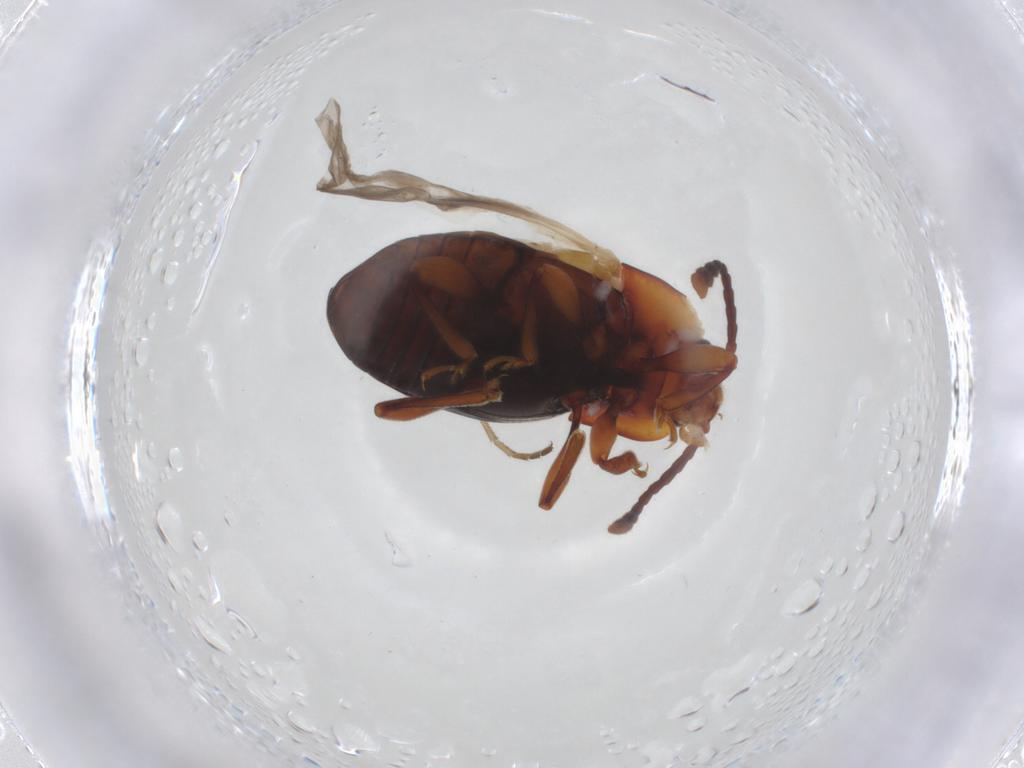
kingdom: Animalia
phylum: Arthropoda
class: Insecta
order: Coleoptera
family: Endomychidae
